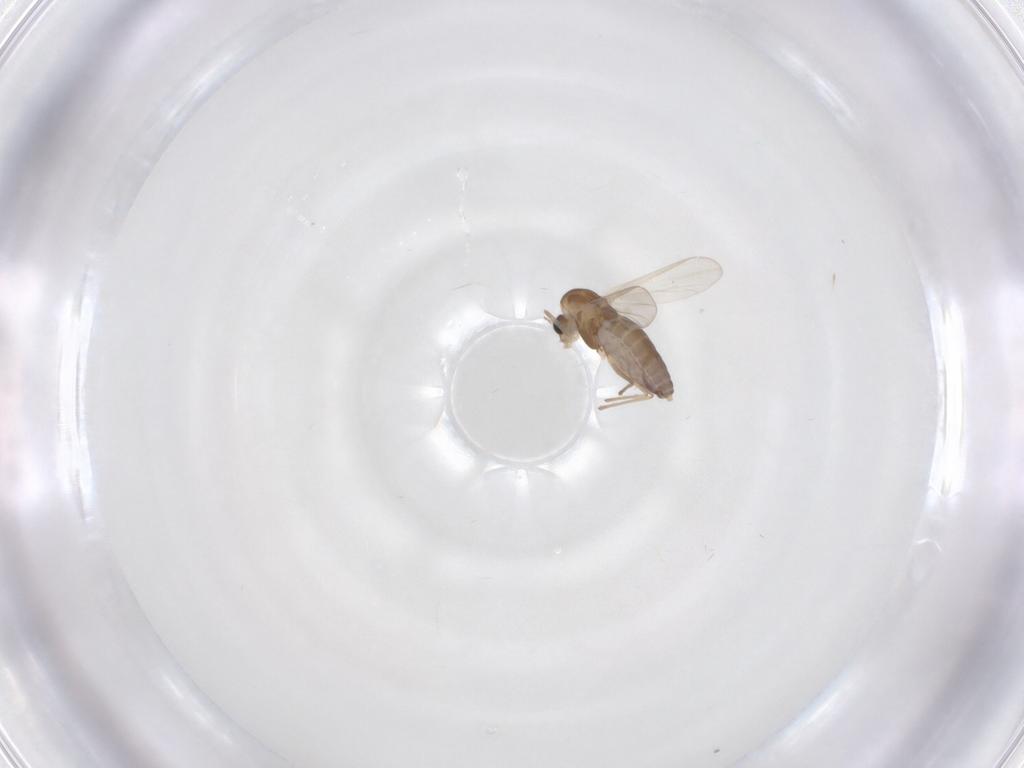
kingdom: Animalia
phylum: Arthropoda
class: Insecta
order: Diptera
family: Chironomidae
